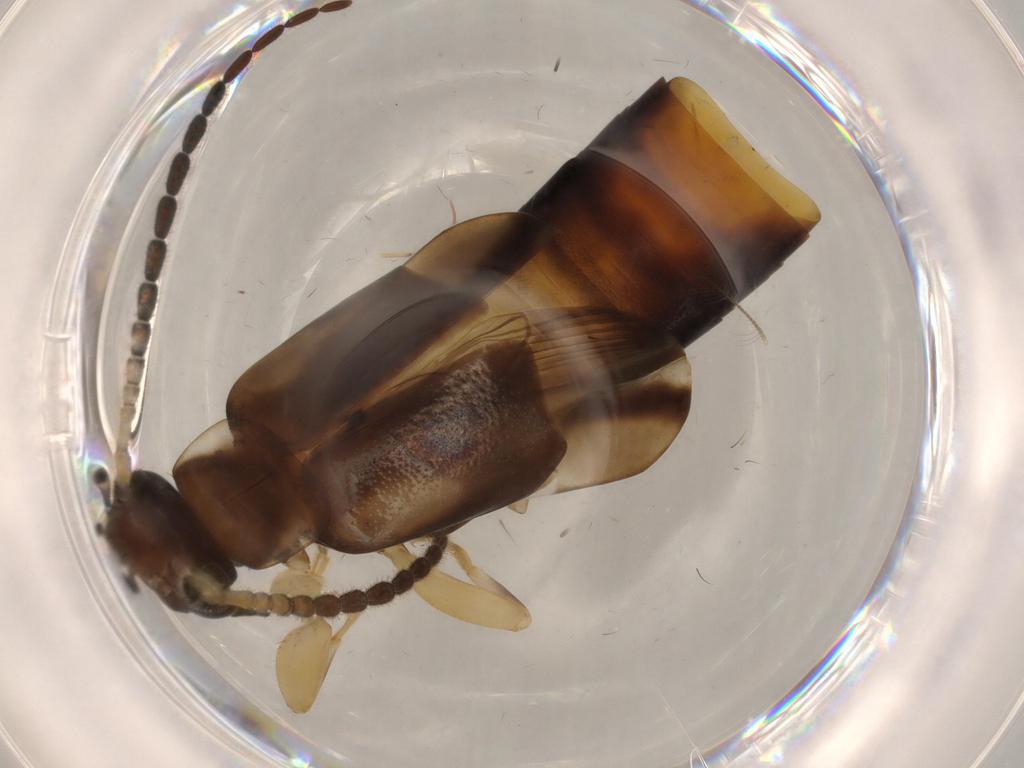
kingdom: Animalia
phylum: Arthropoda
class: Insecta
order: Dermaptera
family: Labiduridae
